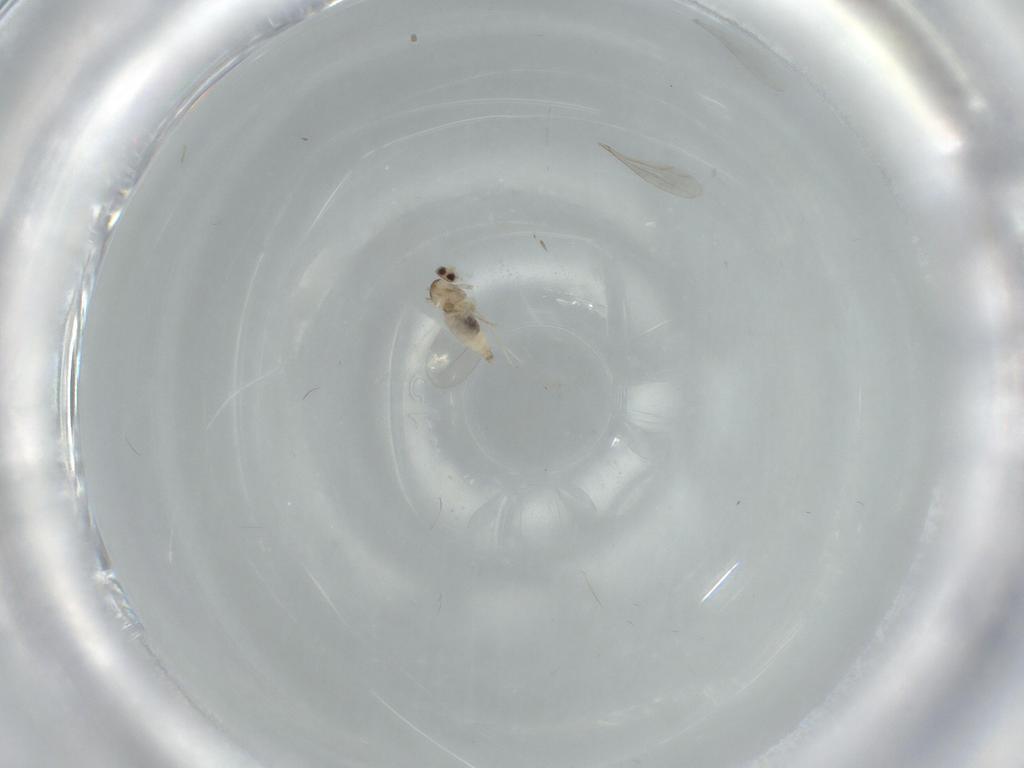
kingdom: Animalia
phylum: Arthropoda
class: Insecta
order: Diptera
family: Cecidomyiidae
